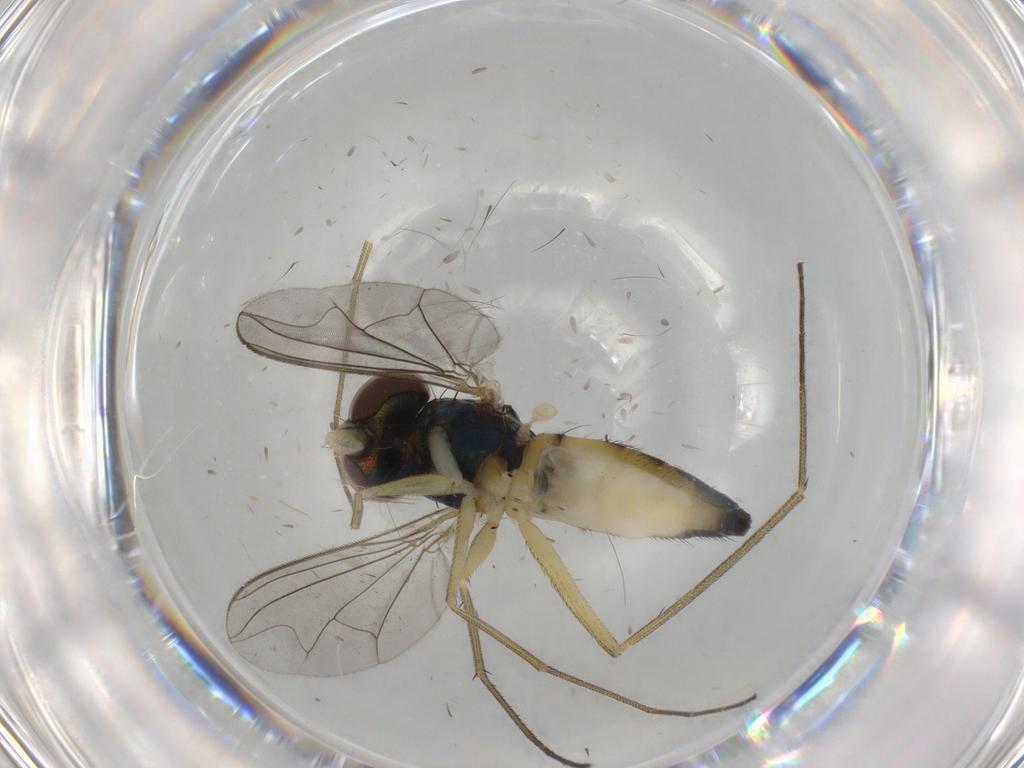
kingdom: Animalia
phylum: Arthropoda
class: Insecta
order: Diptera
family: Dolichopodidae
